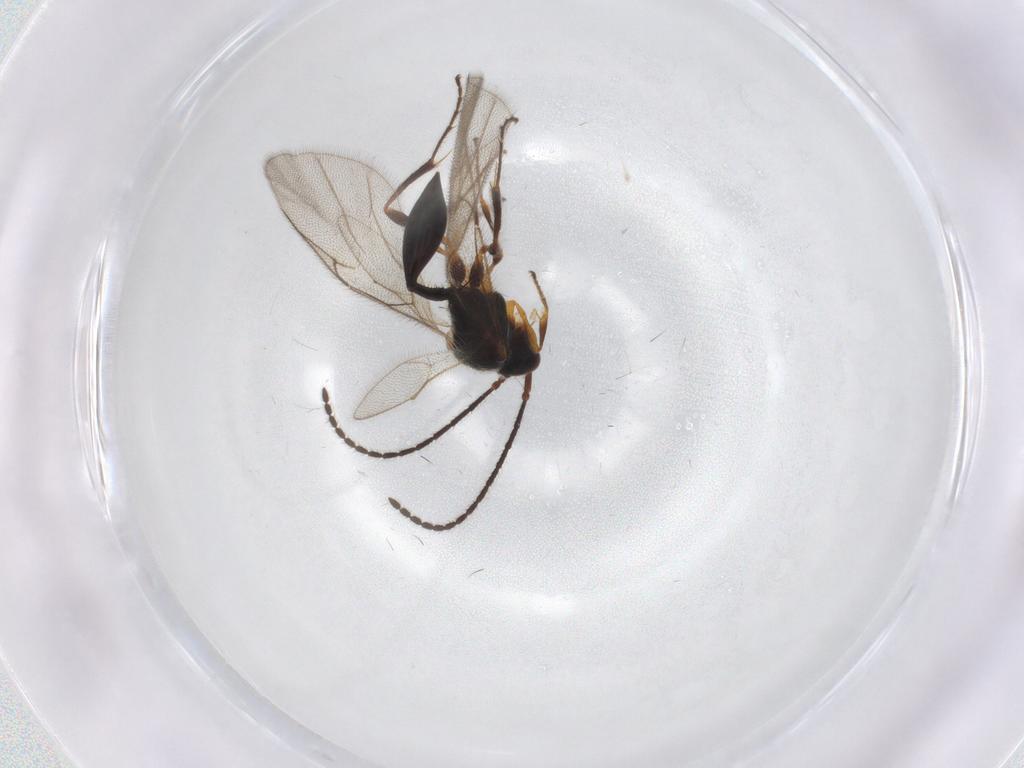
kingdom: Animalia
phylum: Arthropoda
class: Insecta
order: Hymenoptera
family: Diapriidae
